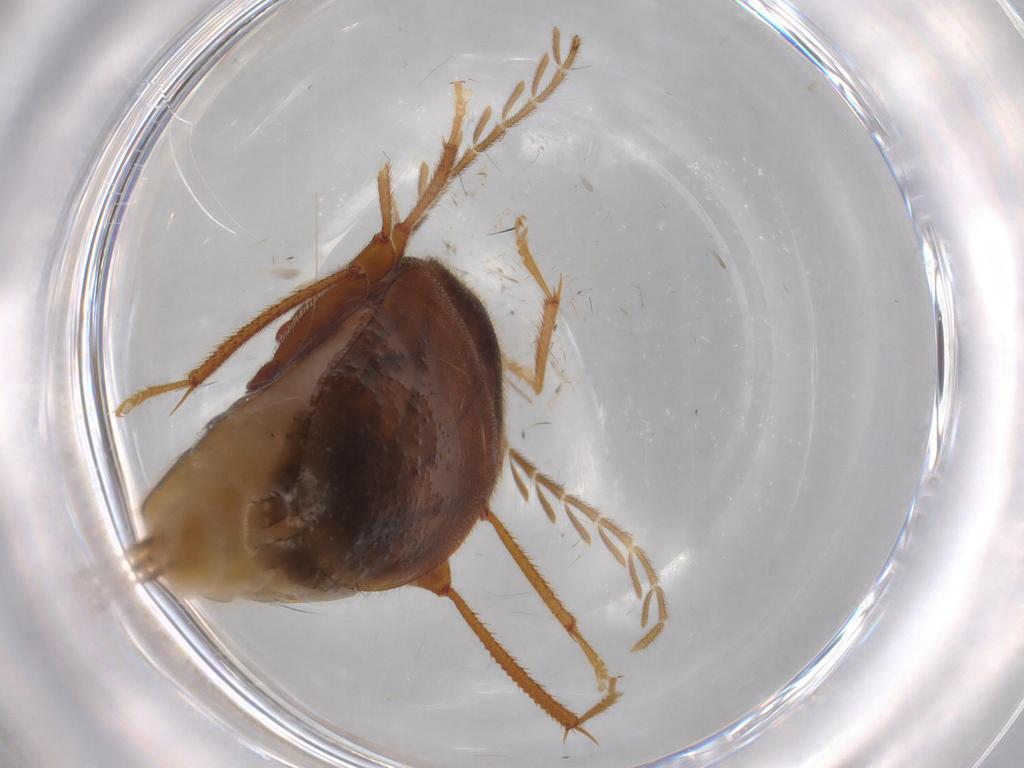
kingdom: Animalia
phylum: Arthropoda
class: Insecta
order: Coleoptera
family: Ptilodactylidae
